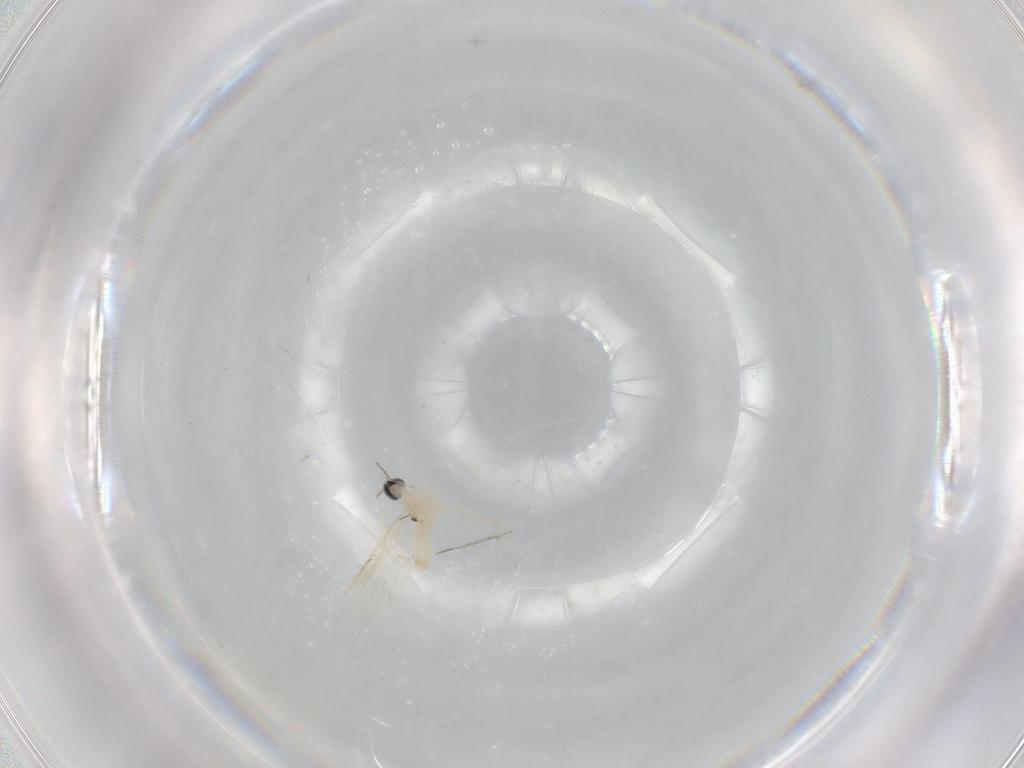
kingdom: Animalia
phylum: Arthropoda
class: Insecta
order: Diptera
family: Cecidomyiidae
